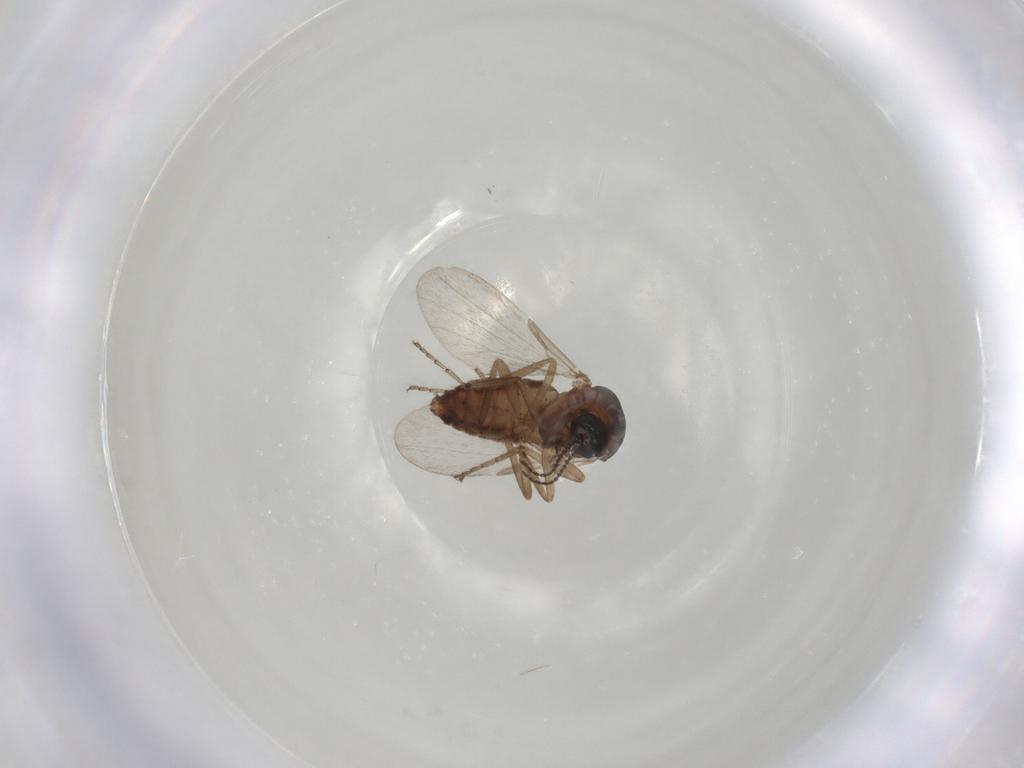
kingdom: Animalia
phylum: Arthropoda
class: Insecta
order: Diptera
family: Ceratopogonidae
